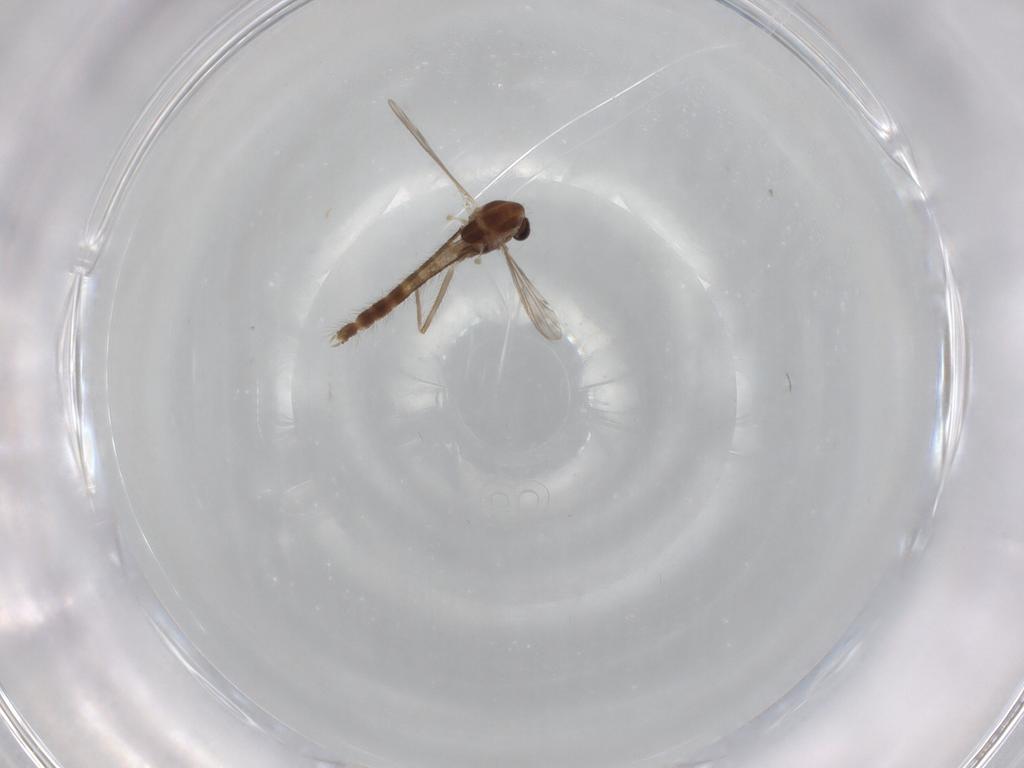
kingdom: Animalia
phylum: Arthropoda
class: Insecta
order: Diptera
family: Chironomidae
